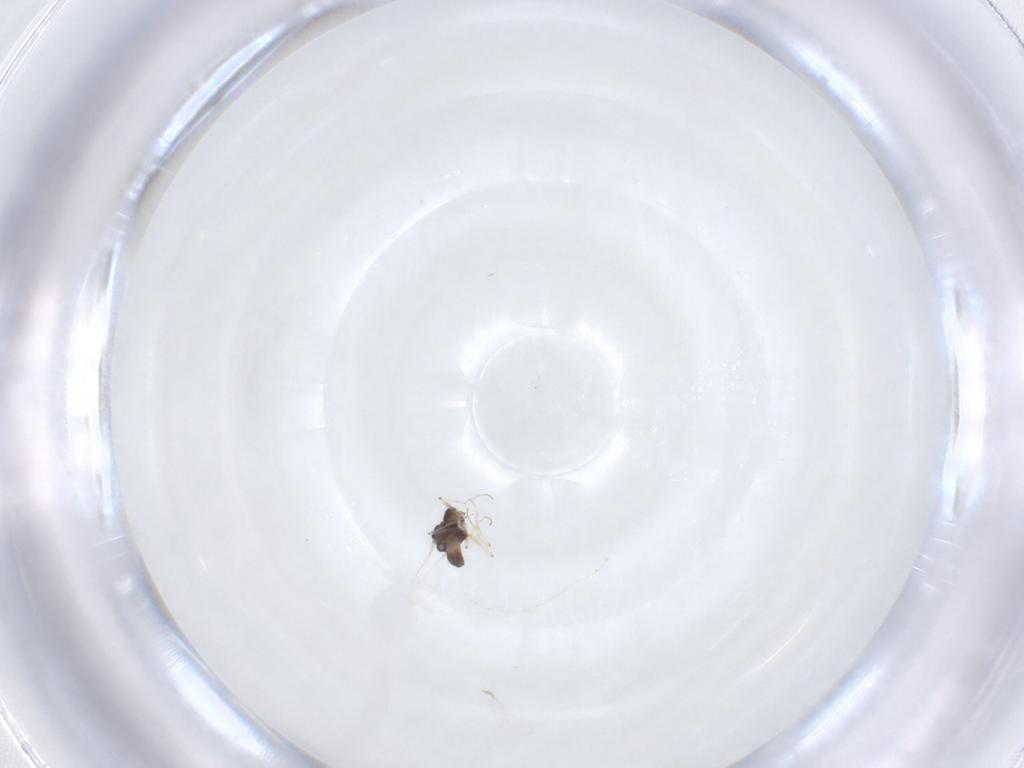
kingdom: Animalia
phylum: Arthropoda
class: Insecta
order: Diptera
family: Chironomidae
